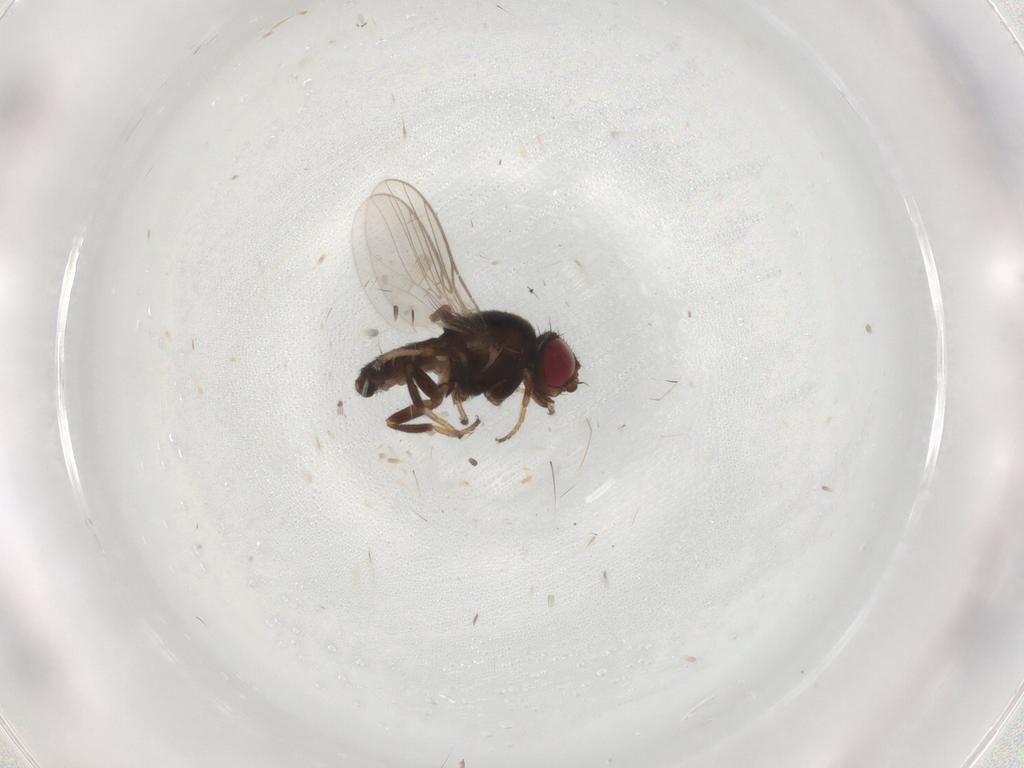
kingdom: Animalia
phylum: Arthropoda
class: Insecta
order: Diptera
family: Chloropidae
